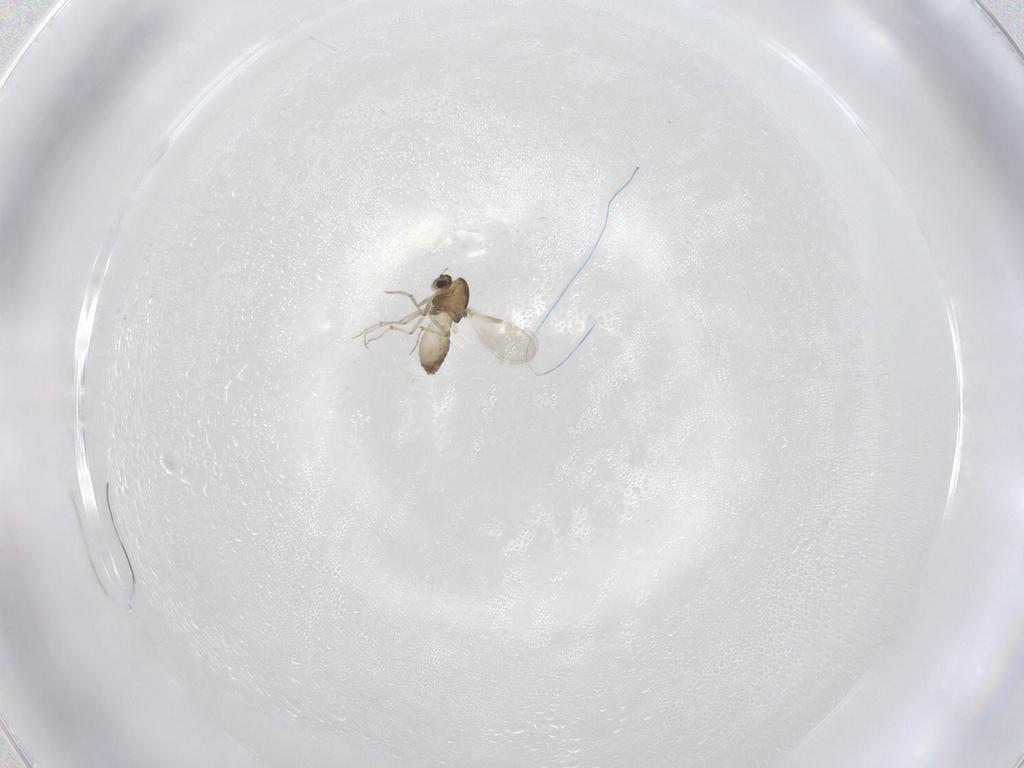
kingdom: Animalia
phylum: Arthropoda
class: Insecta
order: Diptera
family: Chironomidae
